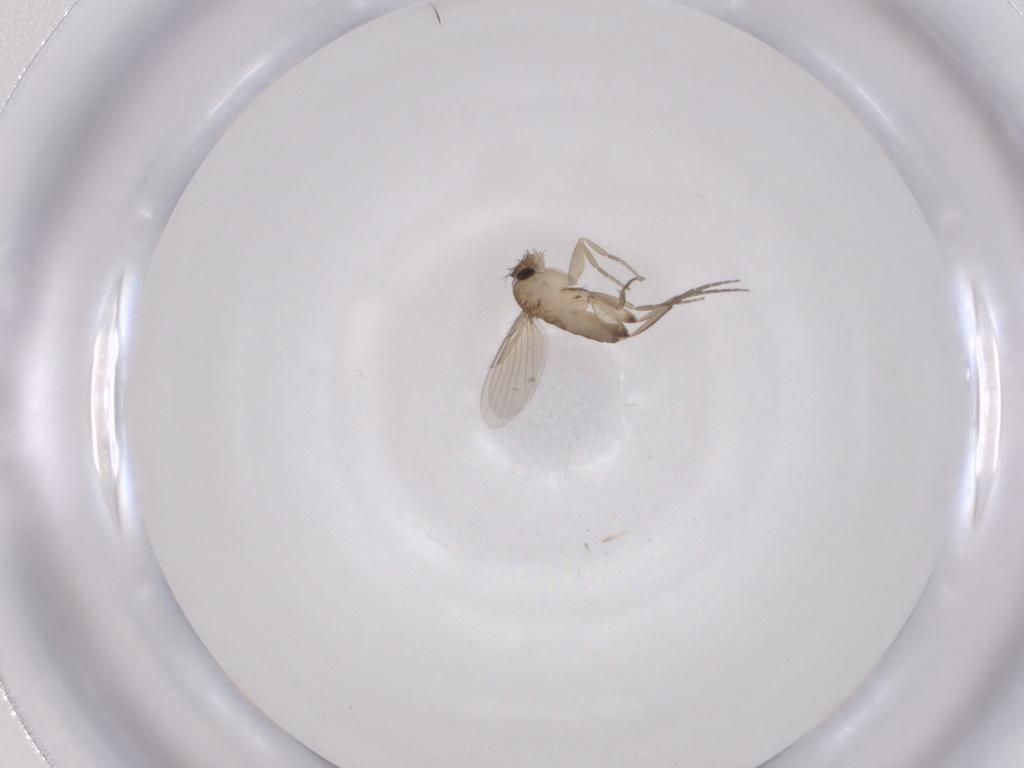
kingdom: Animalia
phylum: Arthropoda
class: Insecta
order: Diptera
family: Phoridae
